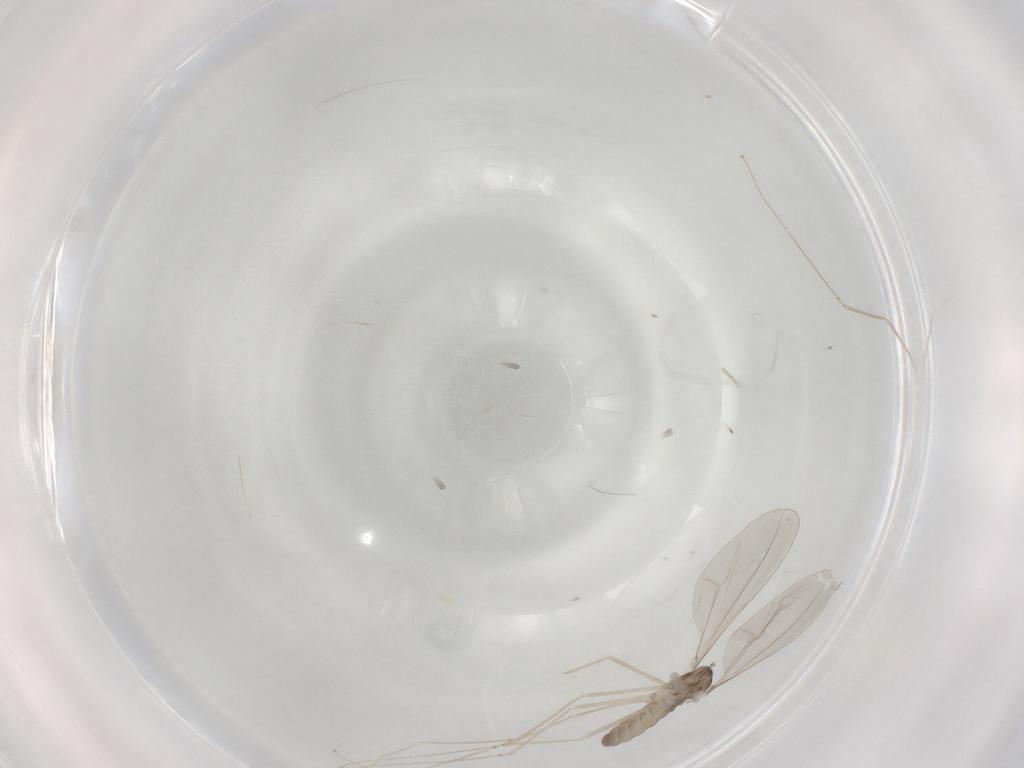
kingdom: Animalia
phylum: Arthropoda
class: Insecta
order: Diptera
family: Cecidomyiidae
